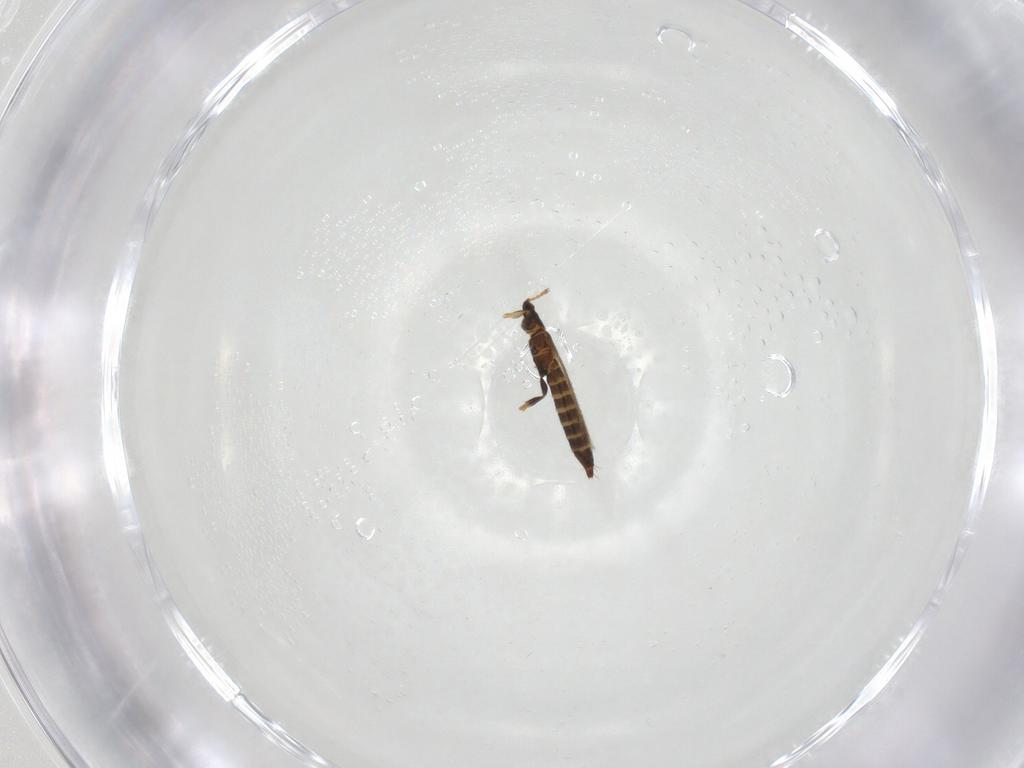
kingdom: Animalia
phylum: Arthropoda
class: Insecta
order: Thysanoptera
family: Thripidae
